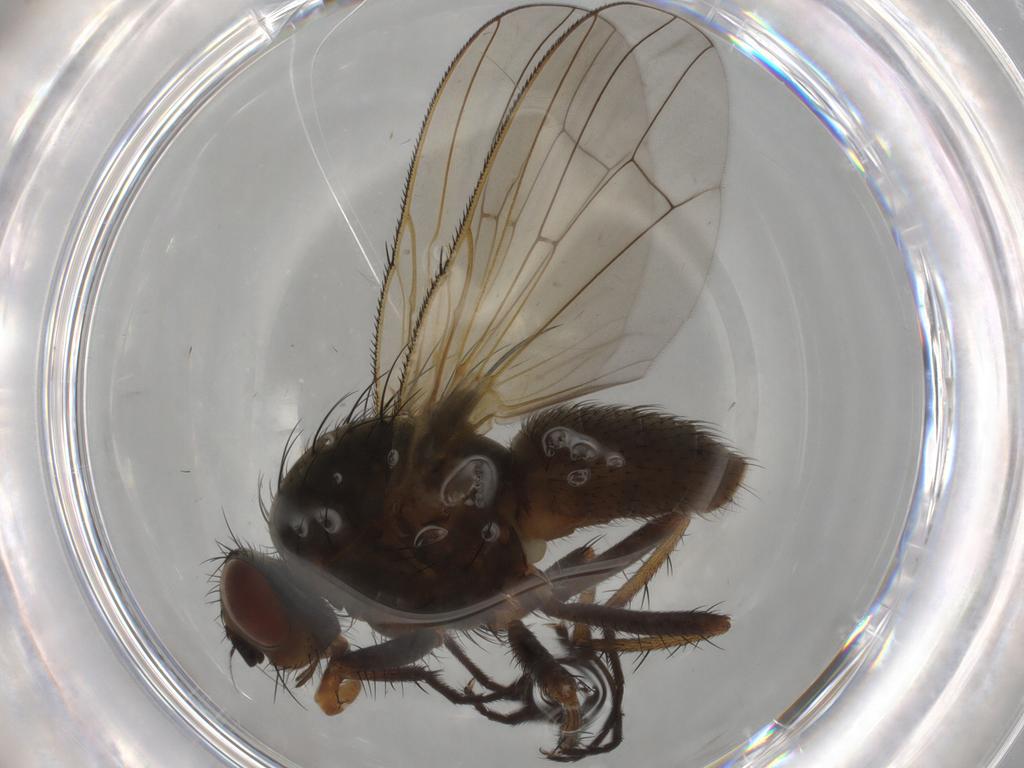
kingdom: Animalia
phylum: Arthropoda
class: Insecta
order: Diptera
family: Anthomyiidae
